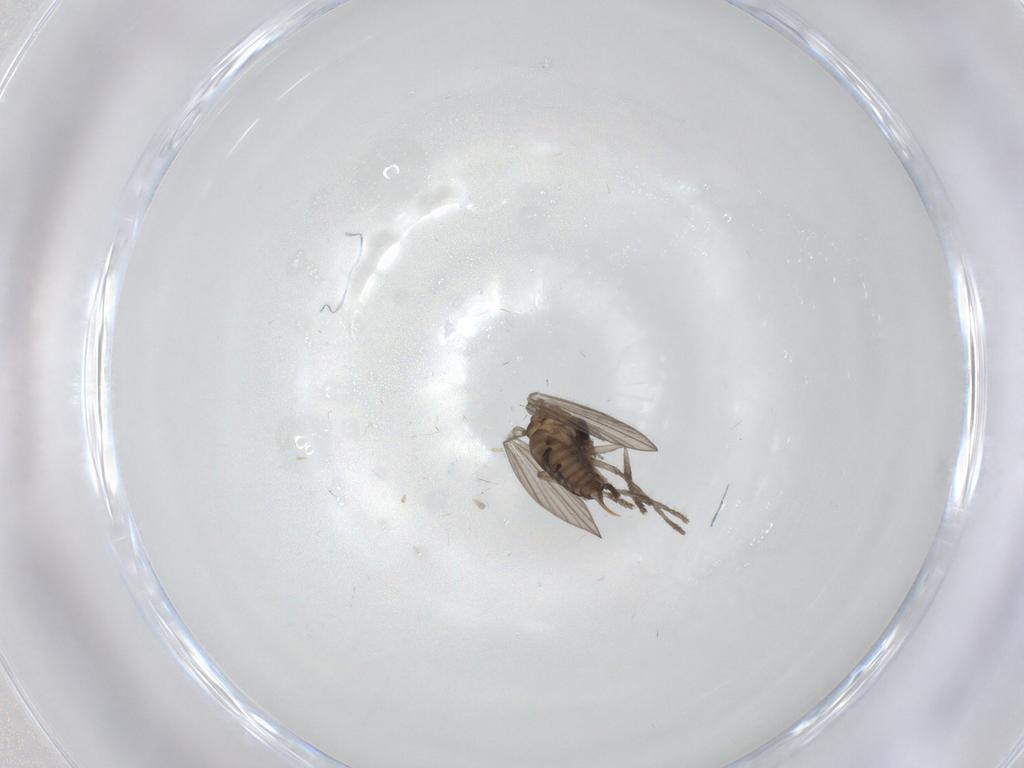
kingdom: Animalia
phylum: Arthropoda
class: Insecta
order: Diptera
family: Psychodidae
